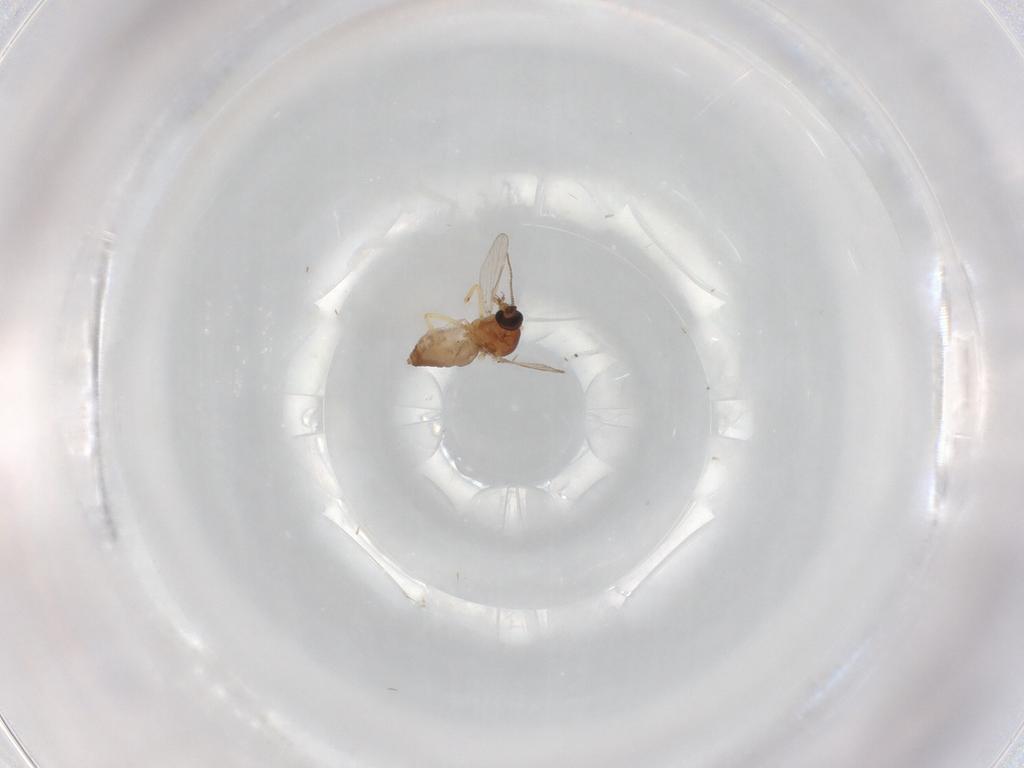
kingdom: Animalia
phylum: Arthropoda
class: Insecta
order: Diptera
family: Ceratopogonidae
